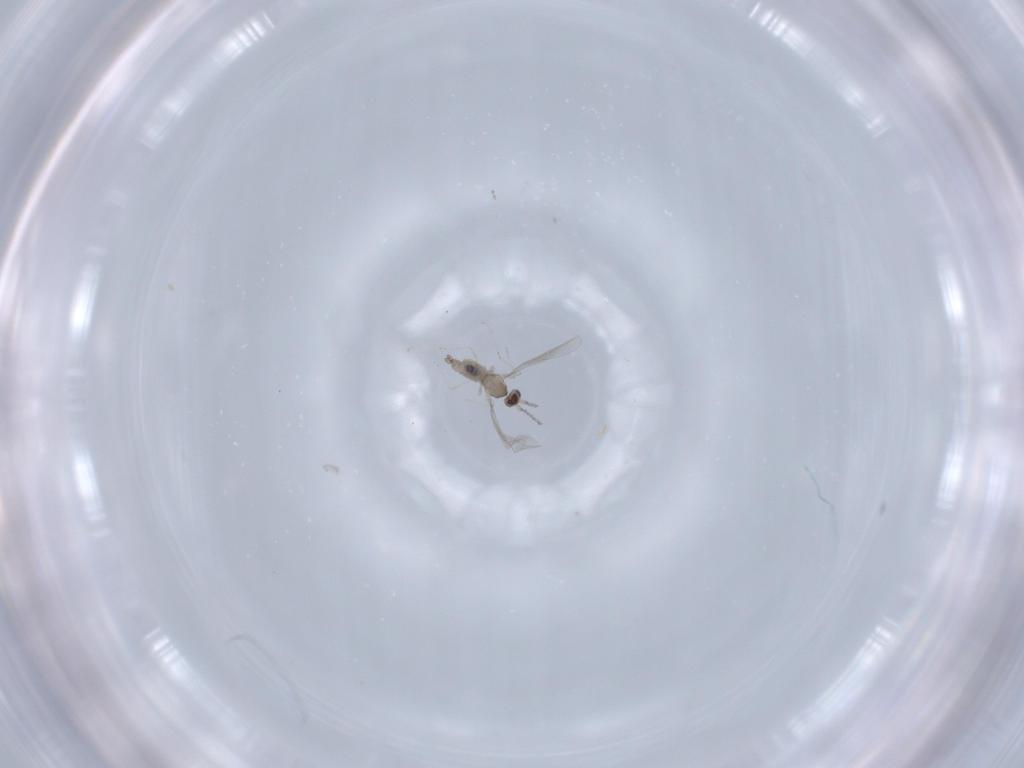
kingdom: Animalia
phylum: Arthropoda
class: Insecta
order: Diptera
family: Cecidomyiidae
